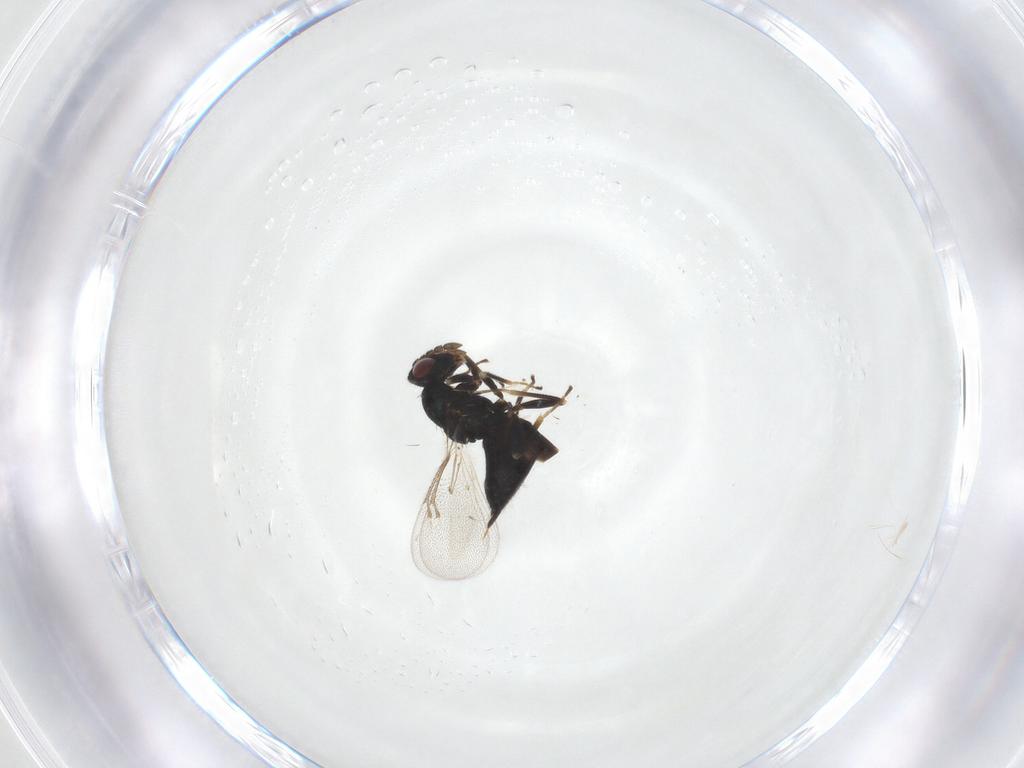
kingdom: Animalia
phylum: Arthropoda
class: Insecta
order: Hymenoptera
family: Eulophidae
